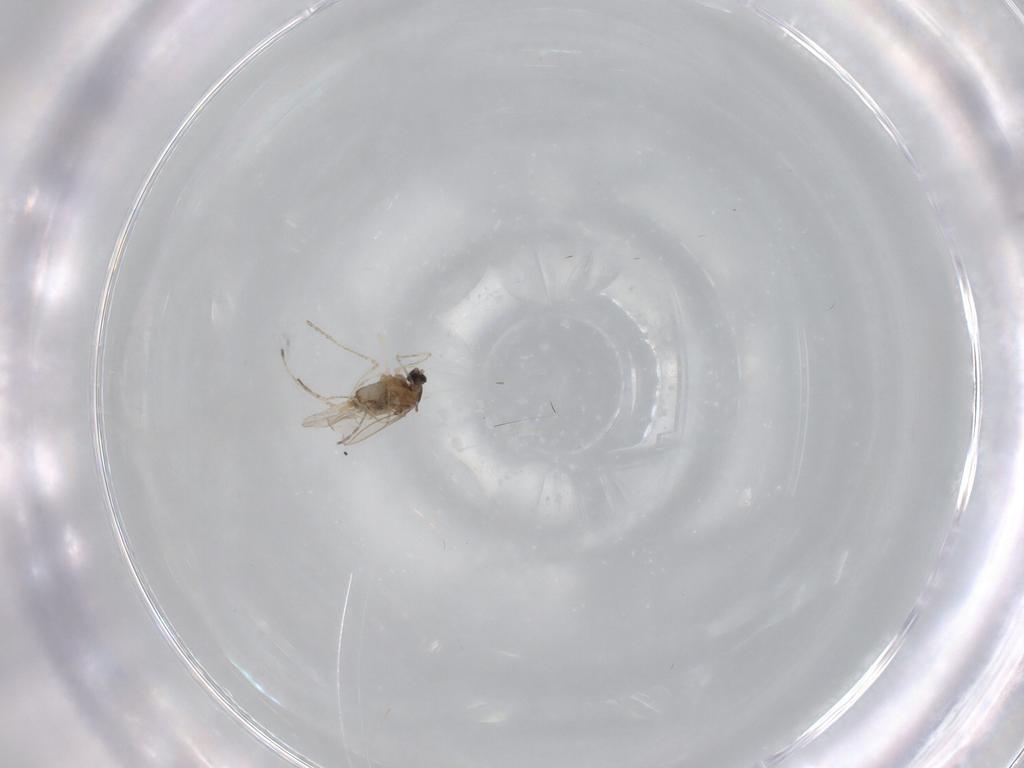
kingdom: Animalia
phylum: Arthropoda
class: Insecta
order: Diptera
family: Cecidomyiidae
